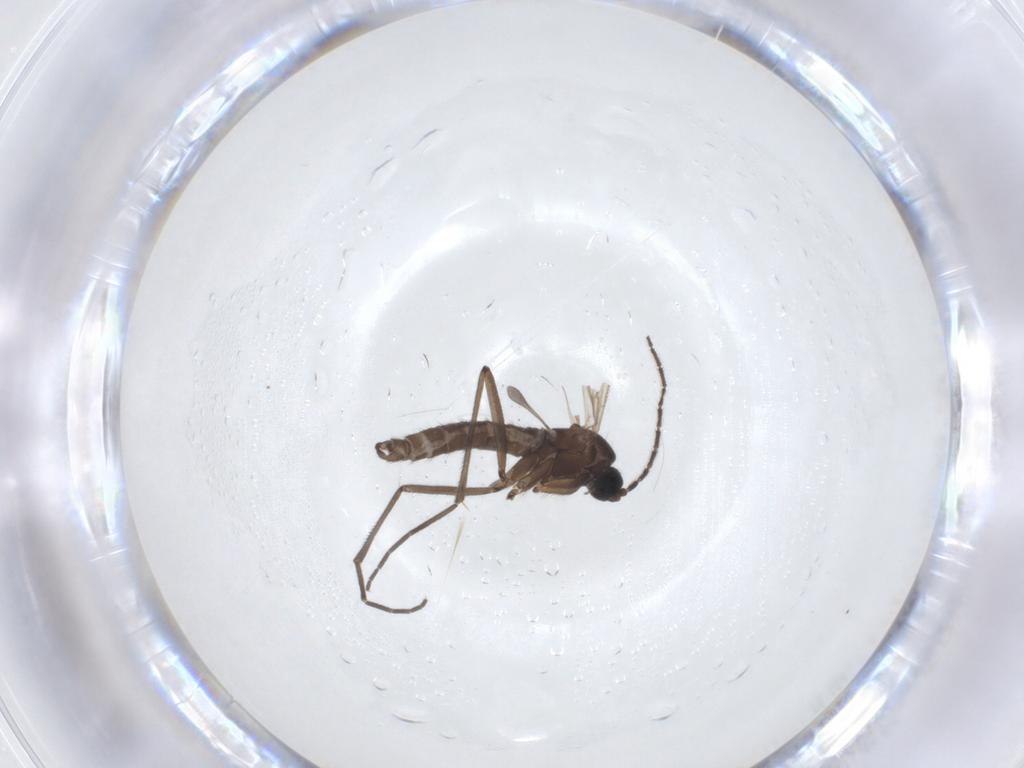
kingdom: Animalia
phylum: Arthropoda
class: Insecta
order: Diptera
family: Sciaridae
